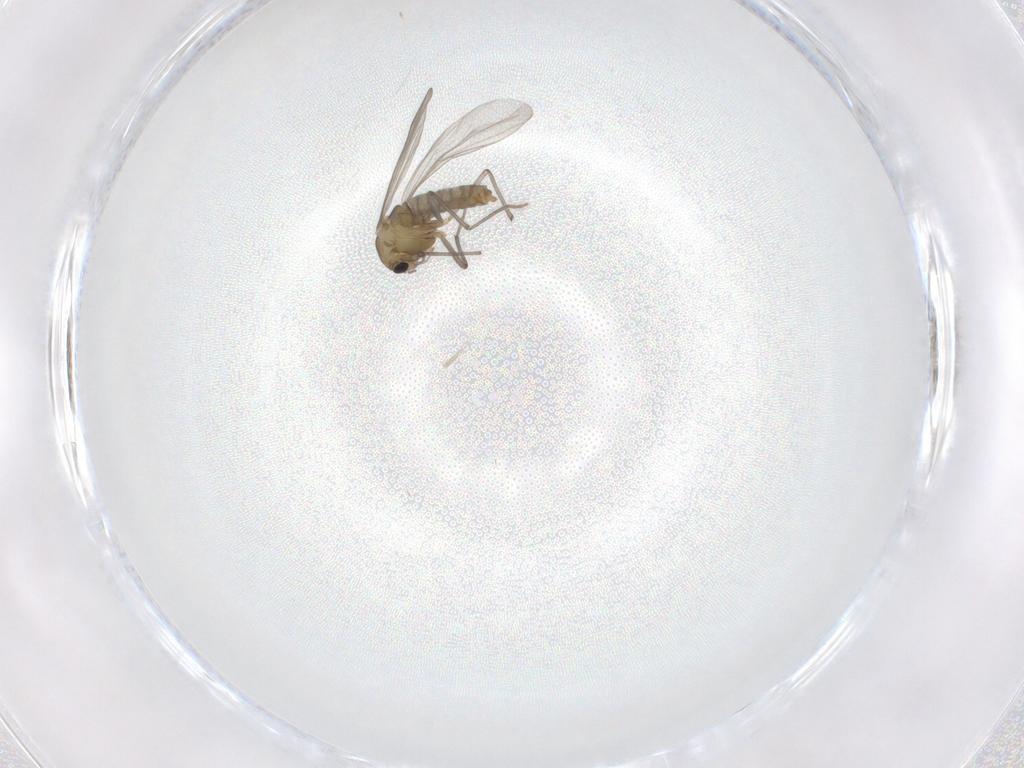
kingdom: Animalia
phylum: Arthropoda
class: Insecta
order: Diptera
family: Chironomidae
